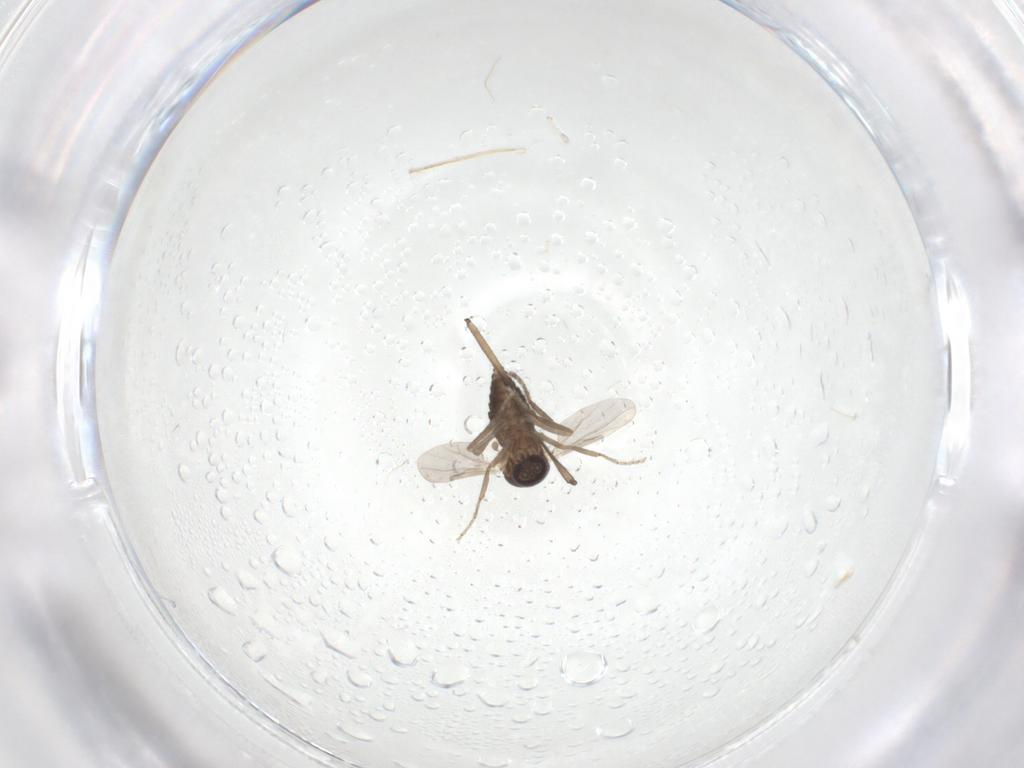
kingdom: Animalia
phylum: Arthropoda
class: Insecta
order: Diptera
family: Ceratopogonidae
